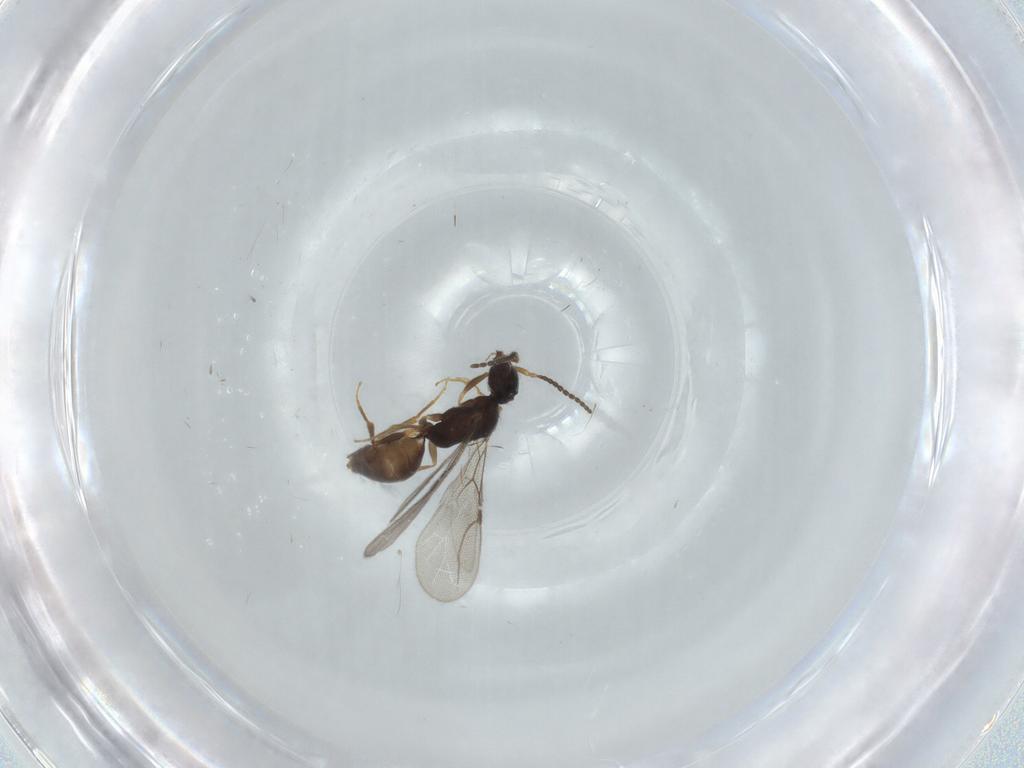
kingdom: Animalia
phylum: Arthropoda
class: Insecta
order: Hymenoptera
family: Bethylidae
